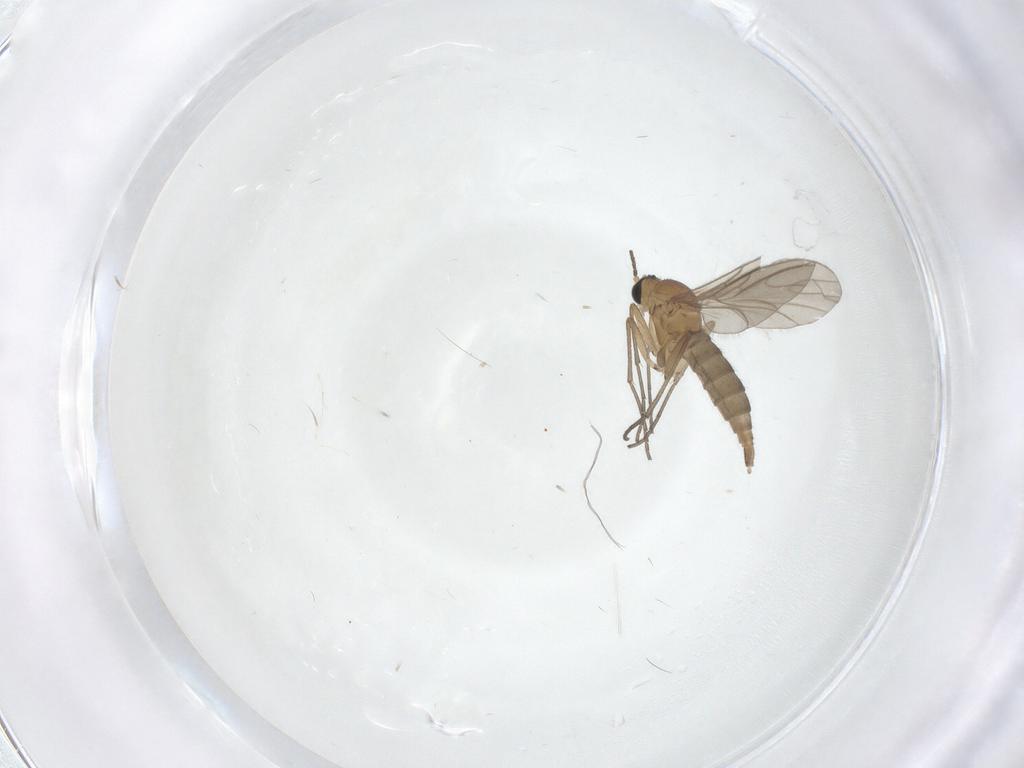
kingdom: Animalia
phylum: Arthropoda
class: Insecta
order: Diptera
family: Sciaridae
